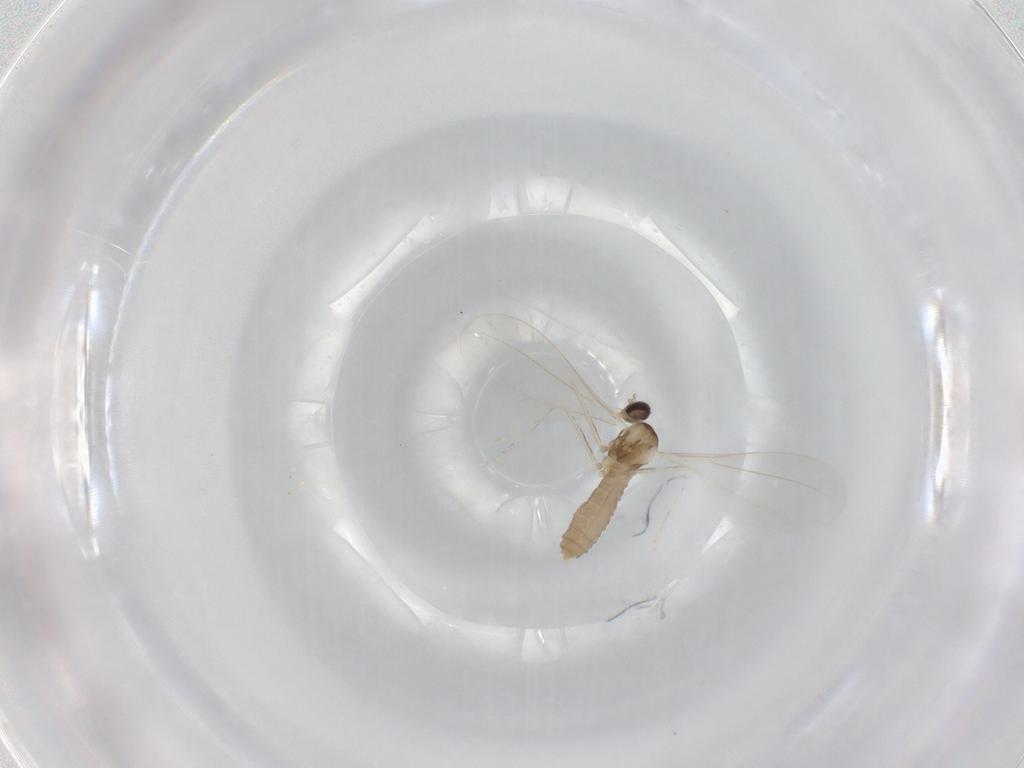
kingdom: Animalia
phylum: Arthropoda
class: Insecta
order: Diptera
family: Cecidomyiidae
